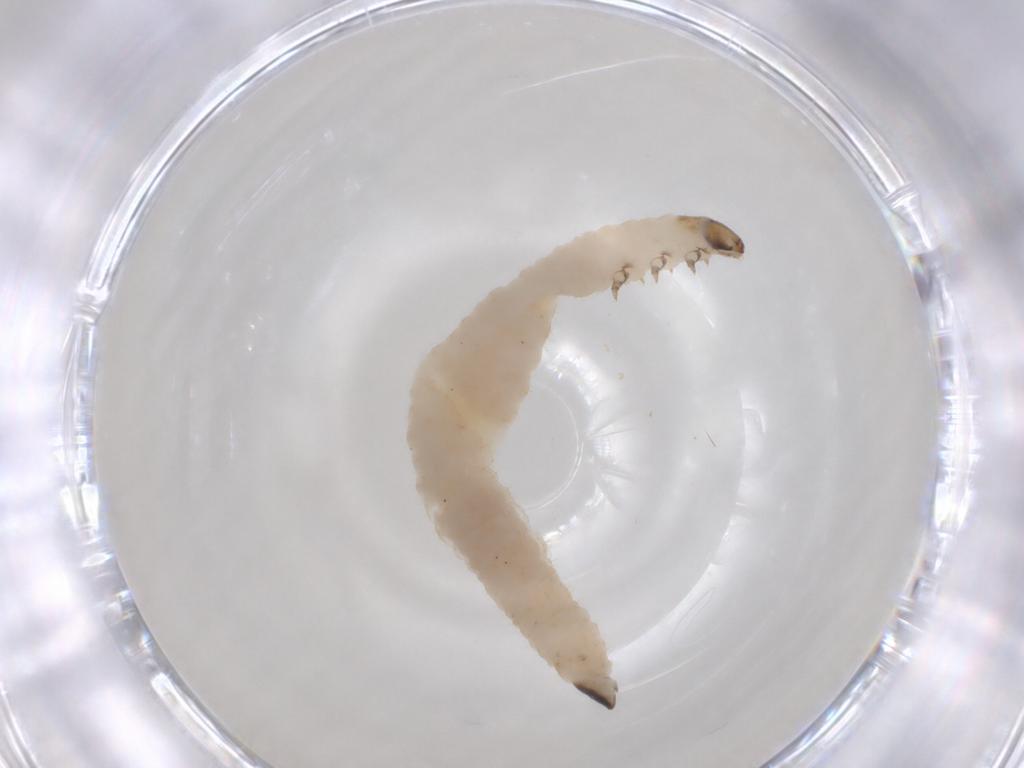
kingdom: Animalia
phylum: Arthropoda
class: Insecta
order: Coleoptera
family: Chrysomelidae
